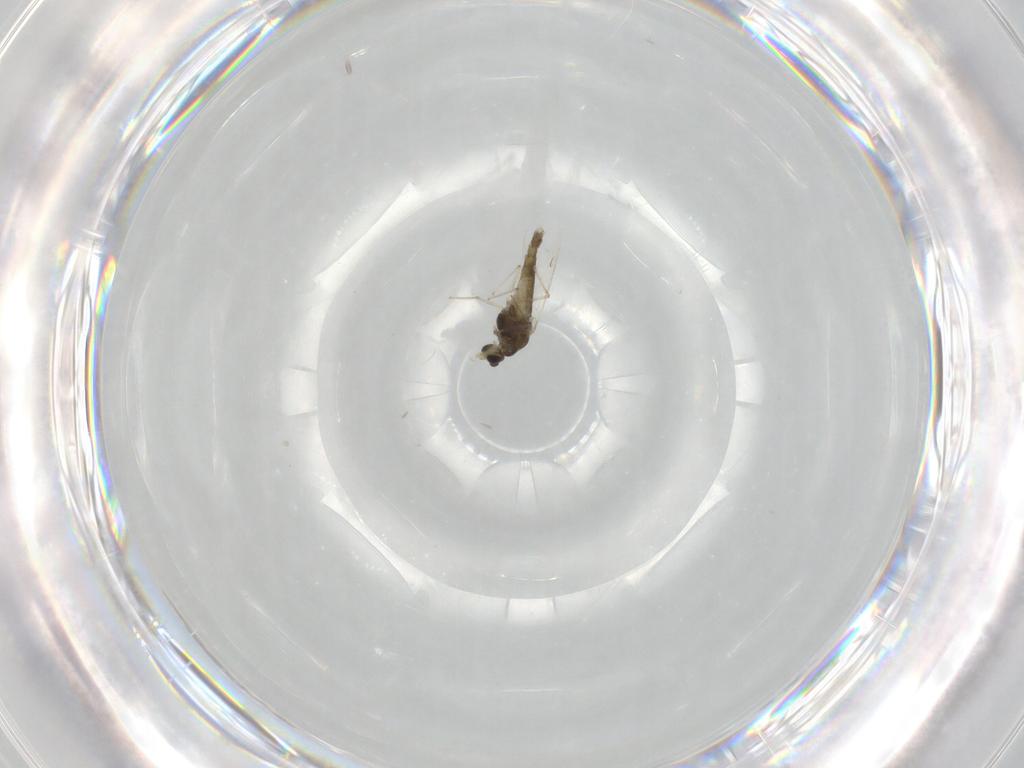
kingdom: Animalia
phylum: Arthropoda
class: Insecta
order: Diptera
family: Chironomidae
